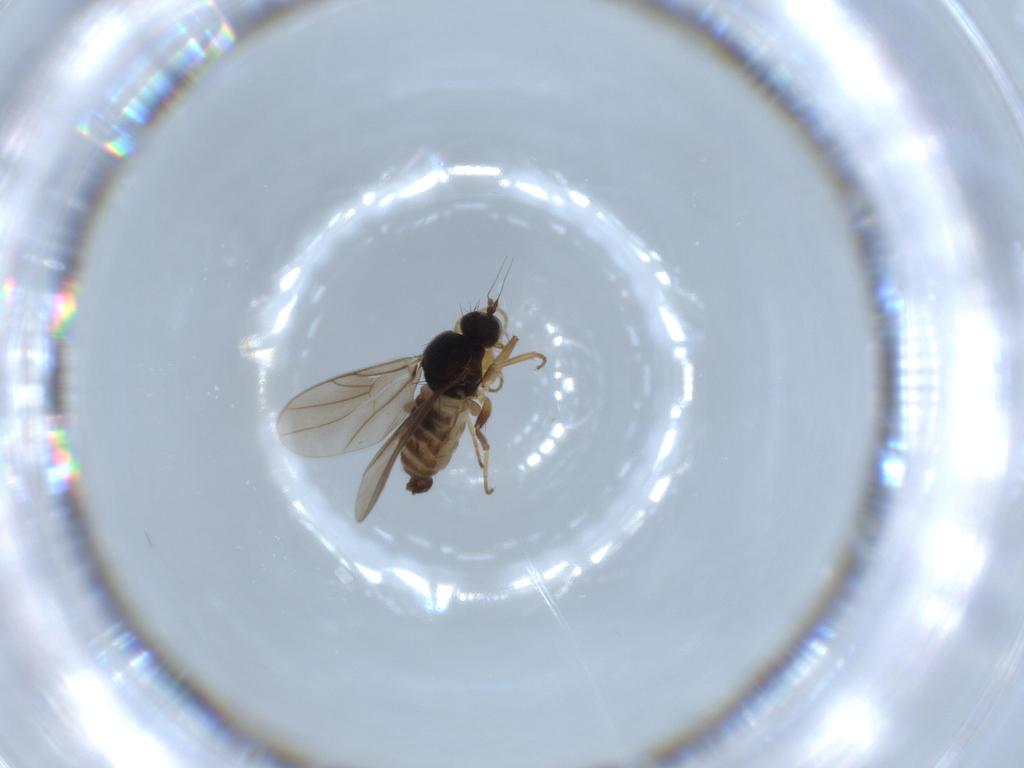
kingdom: Animalia
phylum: Arthropoda
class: Insecta
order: Diptera
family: Hybotidae
